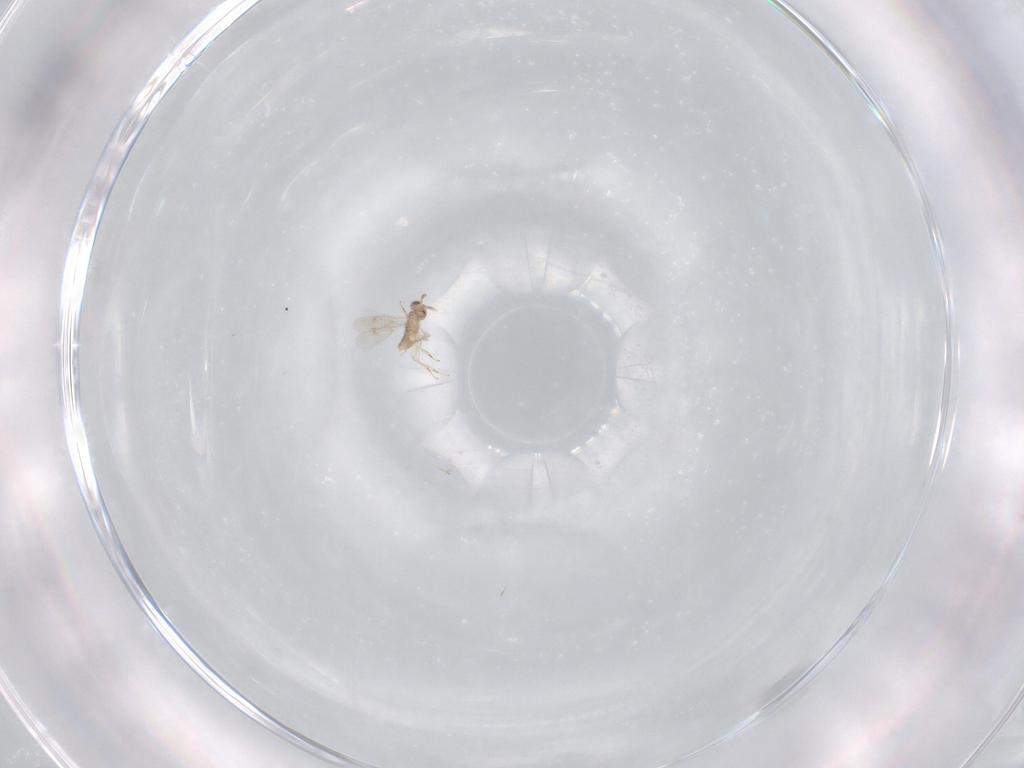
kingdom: Animalia
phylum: Arthropoda
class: Insecta
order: Hymenoptera
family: Aphelinidae
